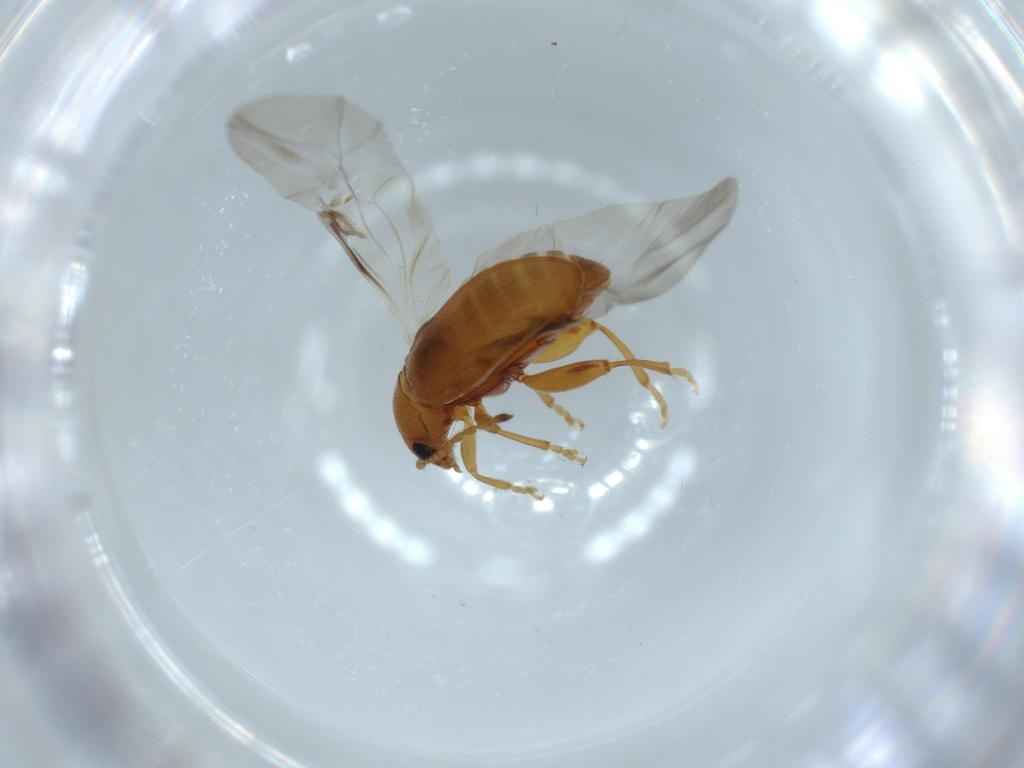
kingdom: Animalia
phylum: Arthropoda
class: Insecta
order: Coleoptera
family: Chrysomelidae
